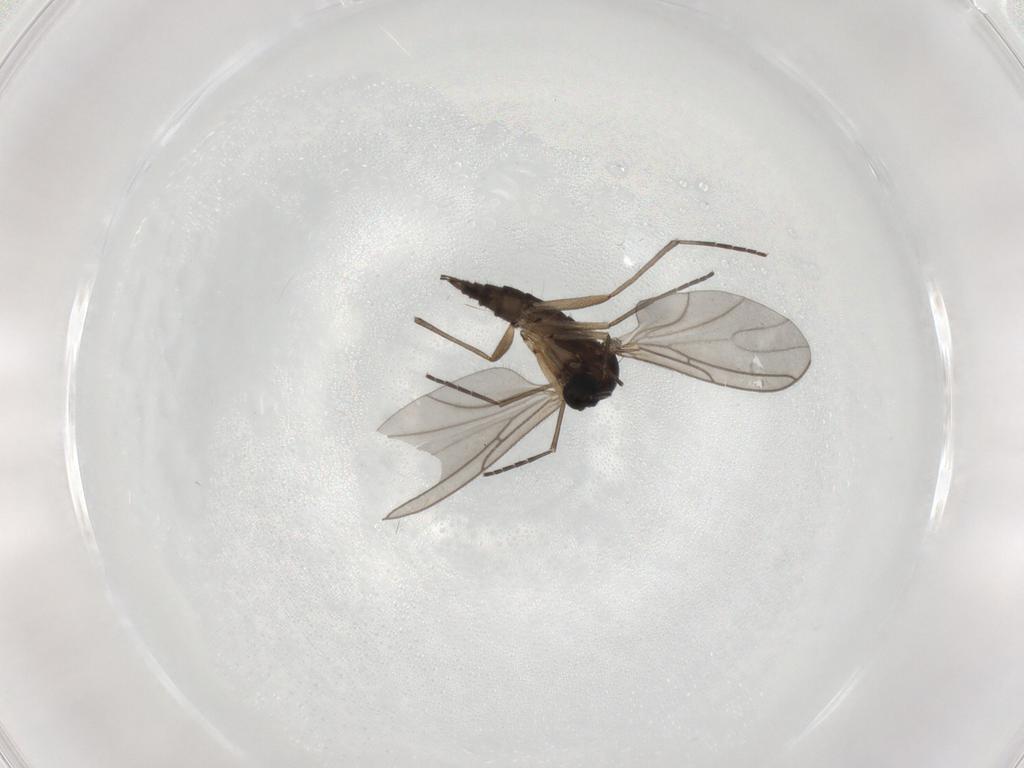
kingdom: Animalia
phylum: Arthropoda
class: Insecta
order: Diptera
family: Sciaridae
